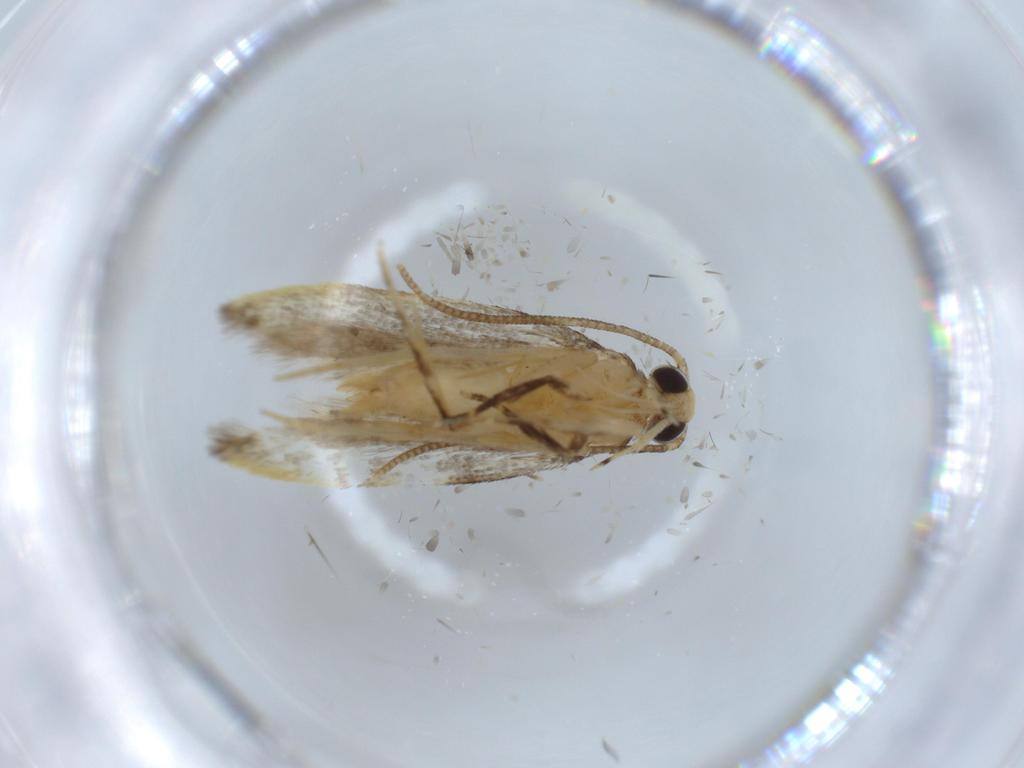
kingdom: Animalia
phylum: Arthropoda
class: Insecta
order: Lepidoptera
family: Autostichidae
